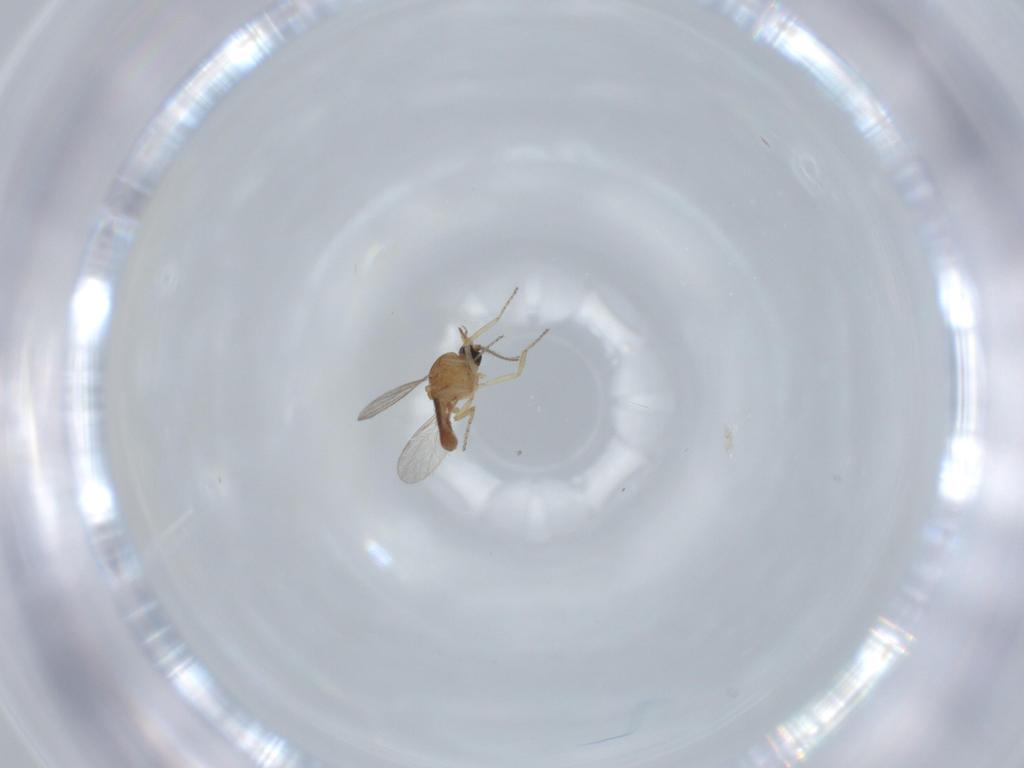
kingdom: Animalia
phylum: Arthropoda
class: Insecta
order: Diptera
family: Ceratopogonidae
